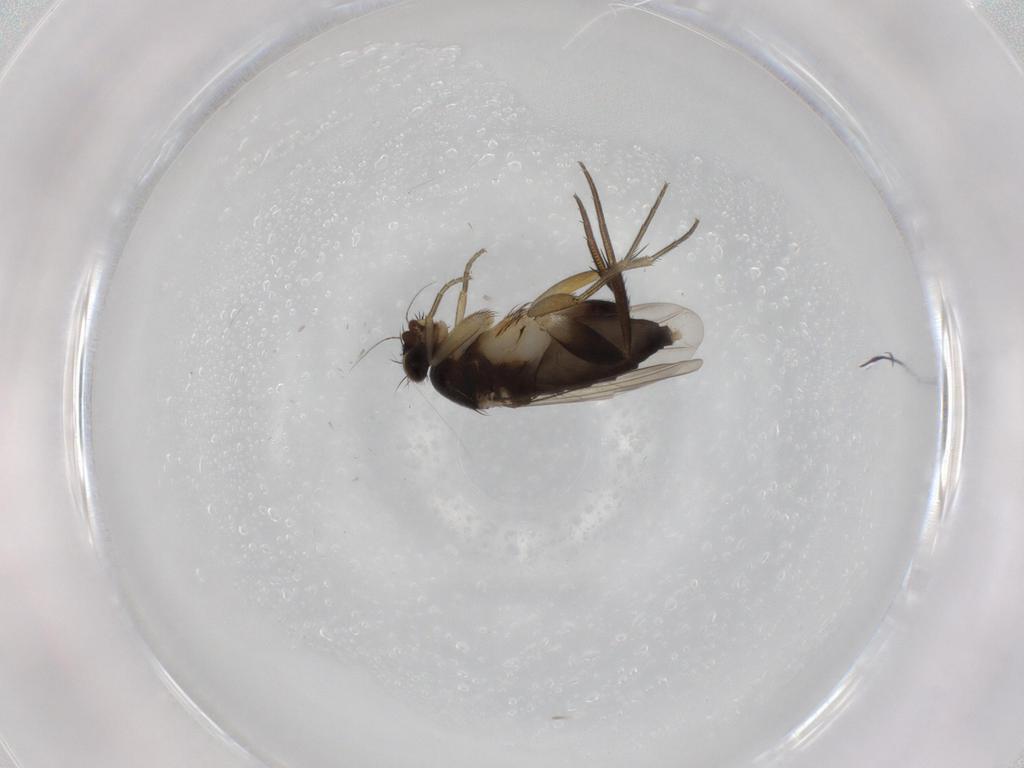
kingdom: Animalia
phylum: Arthropoda
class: Insecta
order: Diptera
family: Phoridae
